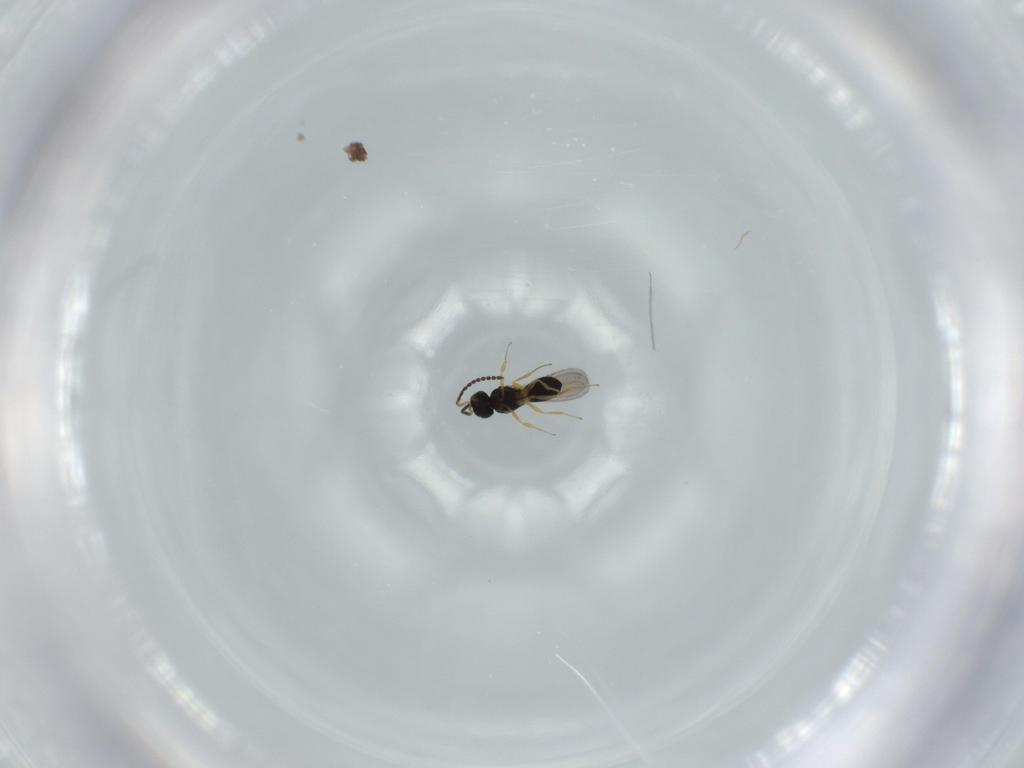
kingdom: Animalia
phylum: Arthropoda
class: Insecta
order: Hymenoptera
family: Scelionidae
